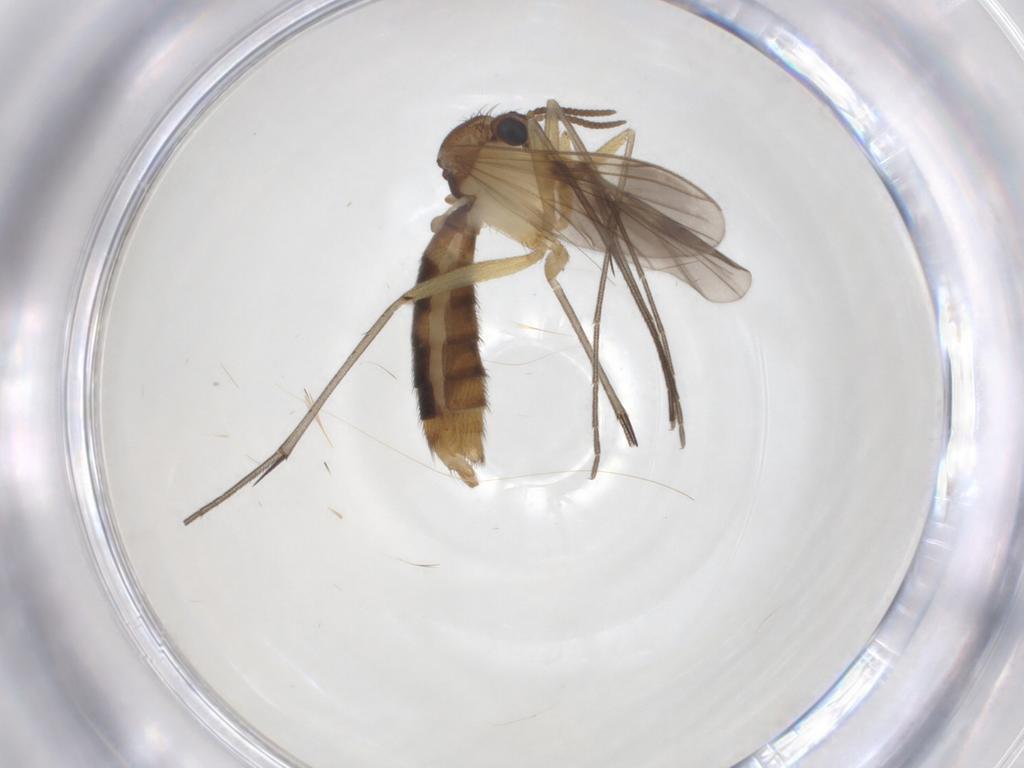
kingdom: Animalia
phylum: Arthropoda
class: Insecta
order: Diptera
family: Mycetophilidae
